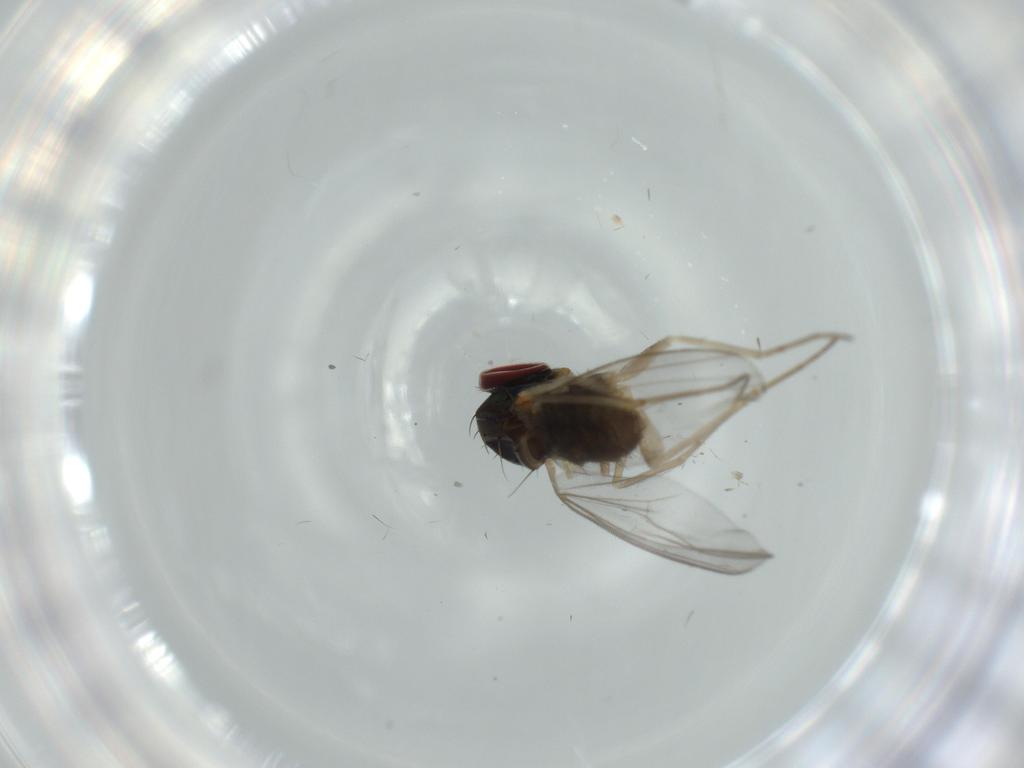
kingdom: Animalia
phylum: Arthropoda
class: Insecta
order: Diptera
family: Dolichopodidae
